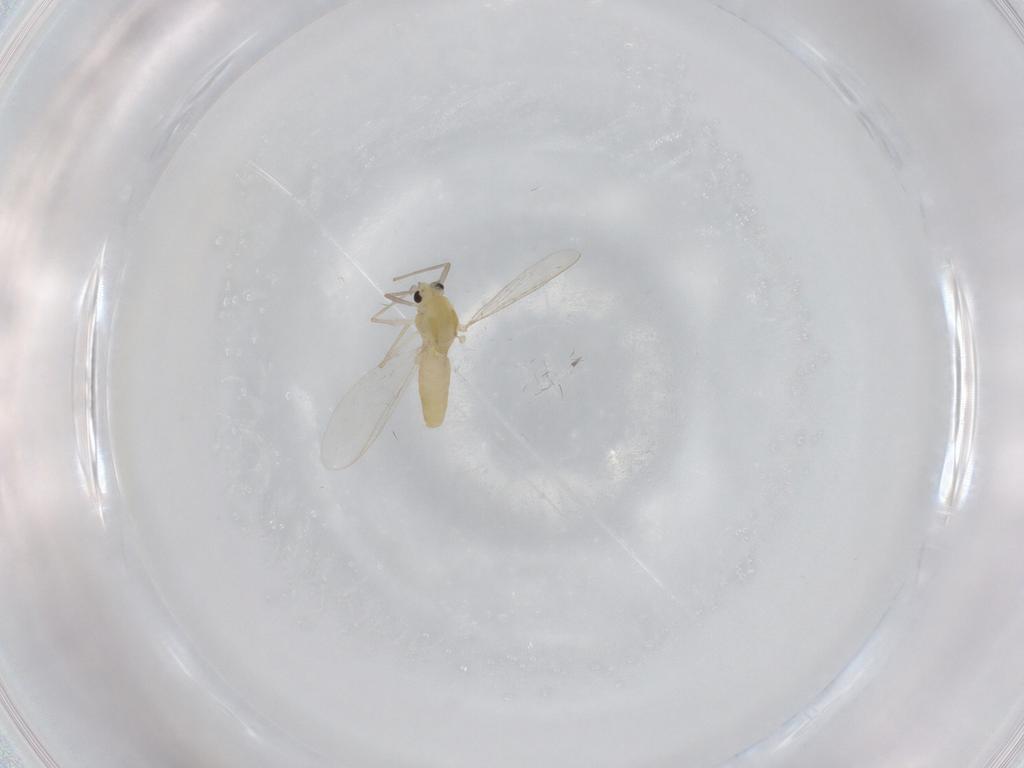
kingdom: Animalia
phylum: Arthropoda
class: Insecta
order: Diptera
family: Chironomidae
